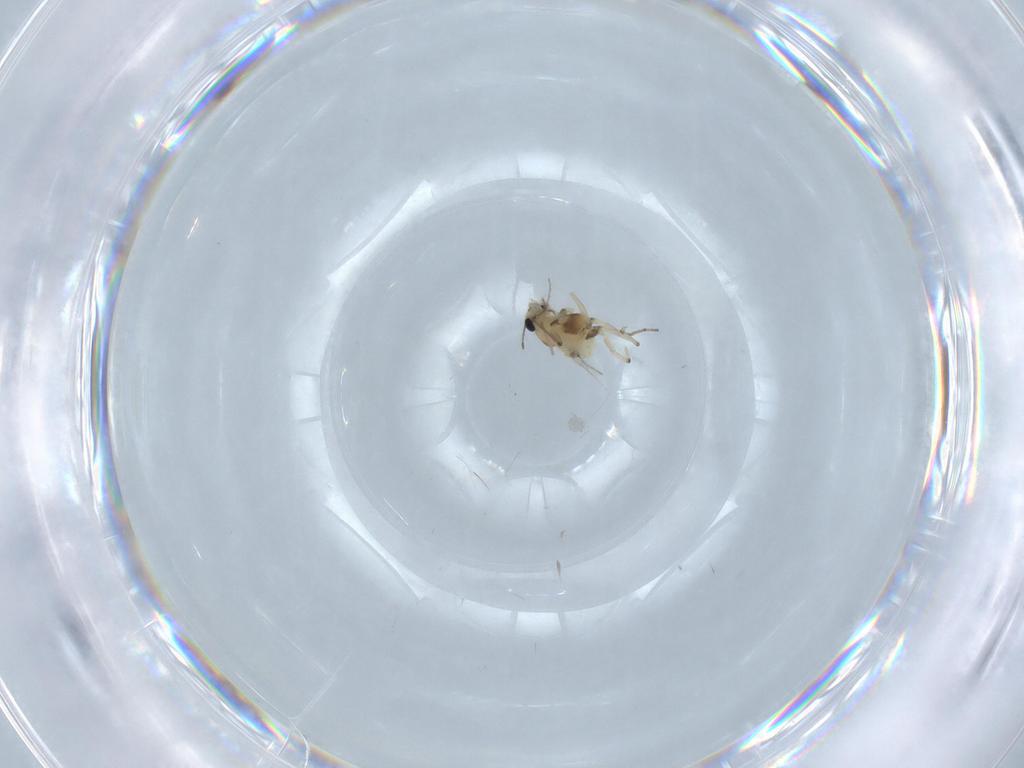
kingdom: Animalia
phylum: Arthropoda
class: Insecta
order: Diptera
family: Chironomidae
